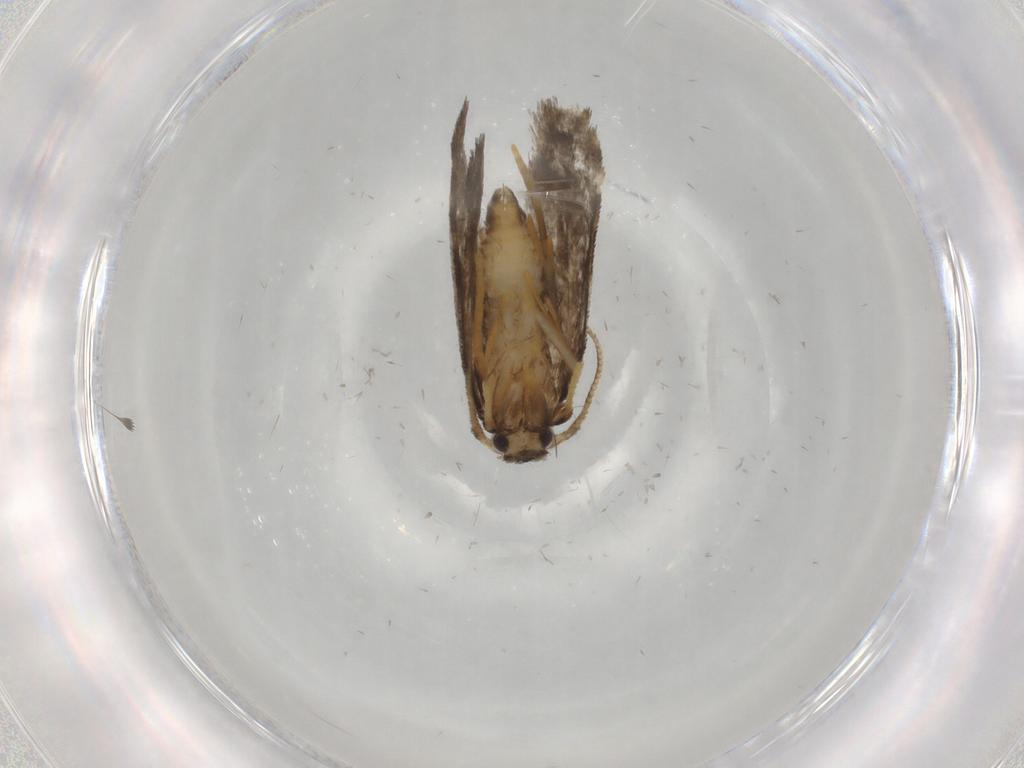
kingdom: Animalia
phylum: Arthropoda
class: Insecta
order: Lepidoptera
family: Psychidae
